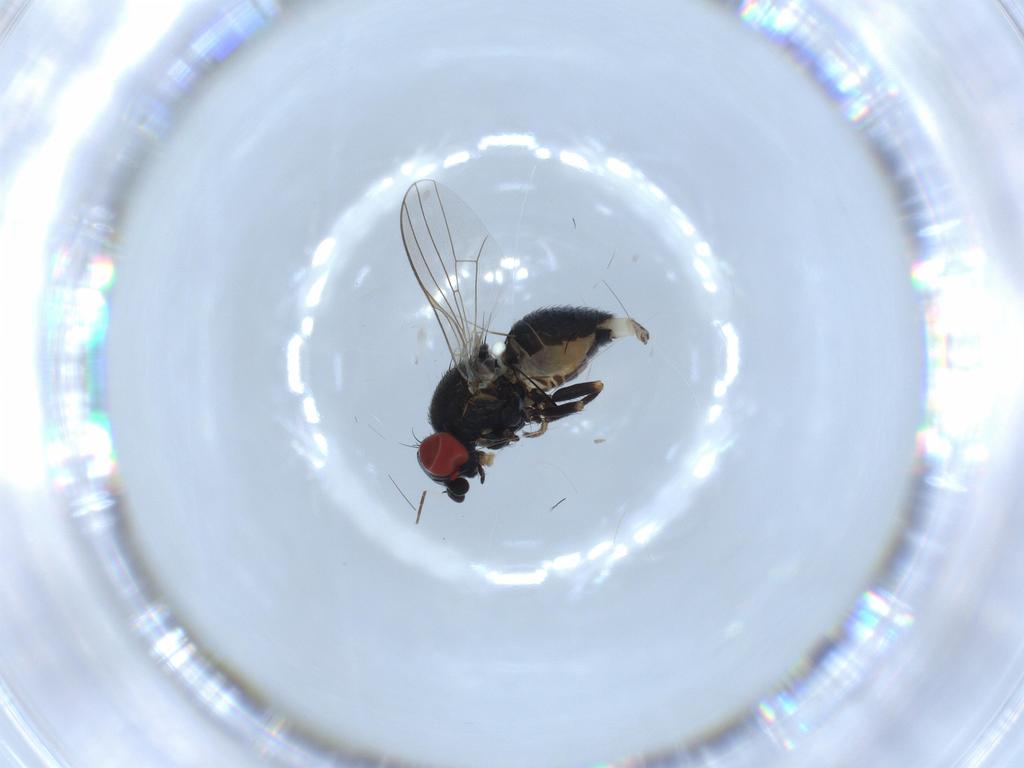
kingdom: Animalia
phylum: Arthropoda
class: Insecta
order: Diptera
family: Chamaemyiidae
